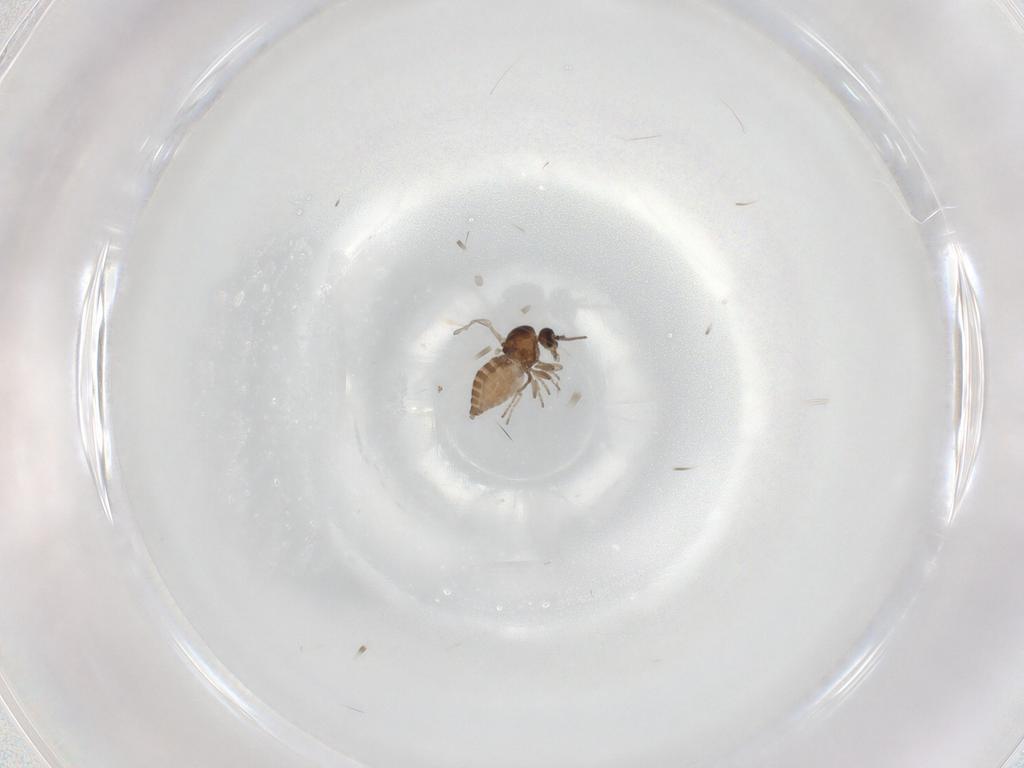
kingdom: Animalia
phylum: Arthropoda
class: Insecta
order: Diptera
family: Ceratopogonidae
